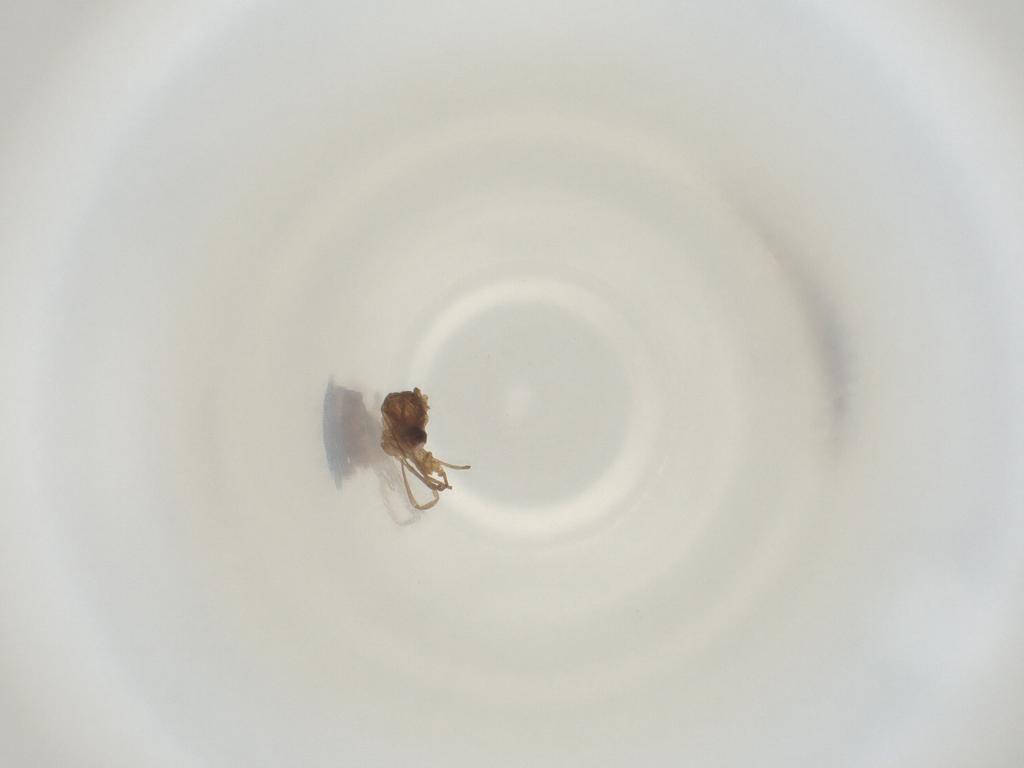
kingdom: Animalia
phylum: Arthropoda
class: Insecta
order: Diptera
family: Cecidomyiidae
